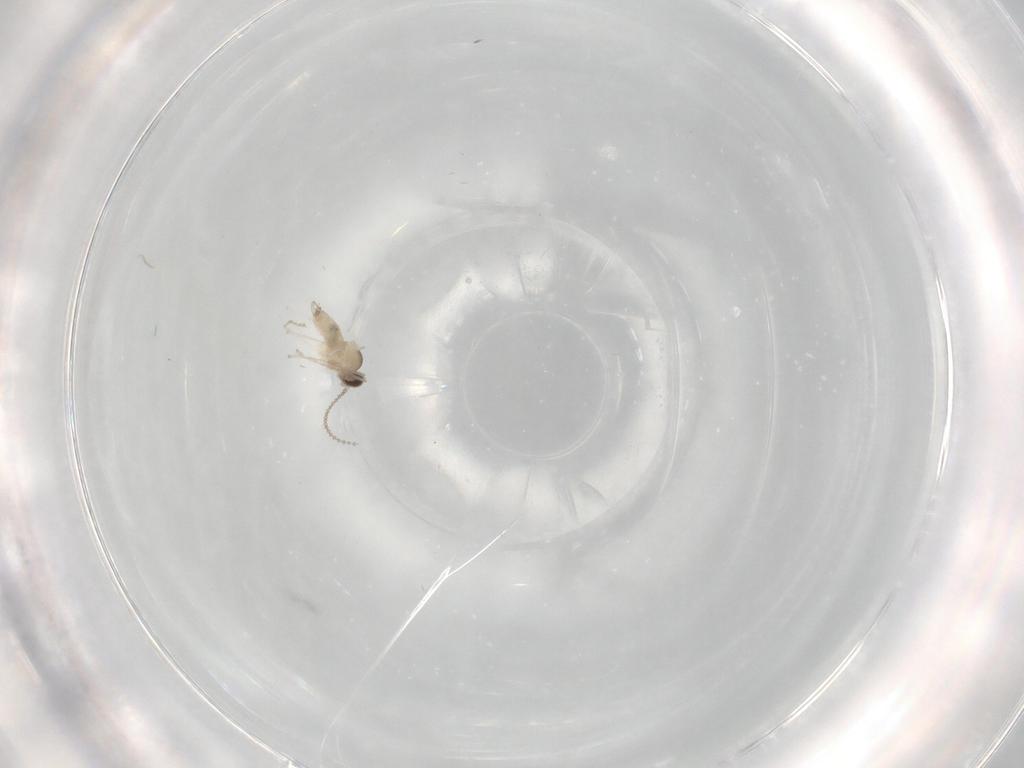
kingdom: Animalia
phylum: Arthropoda
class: Insecta
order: Diptera
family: Cecidomyiidae
